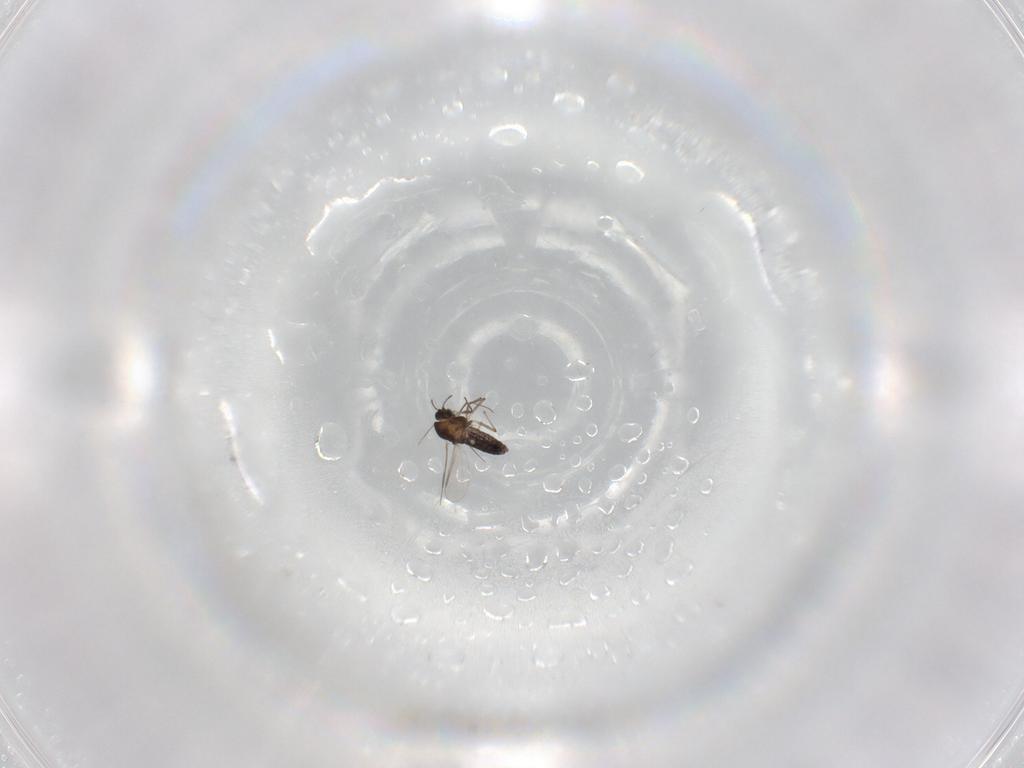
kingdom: Animalia
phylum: Arthropoda
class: Insecta
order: Diptera
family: Chironomidae
